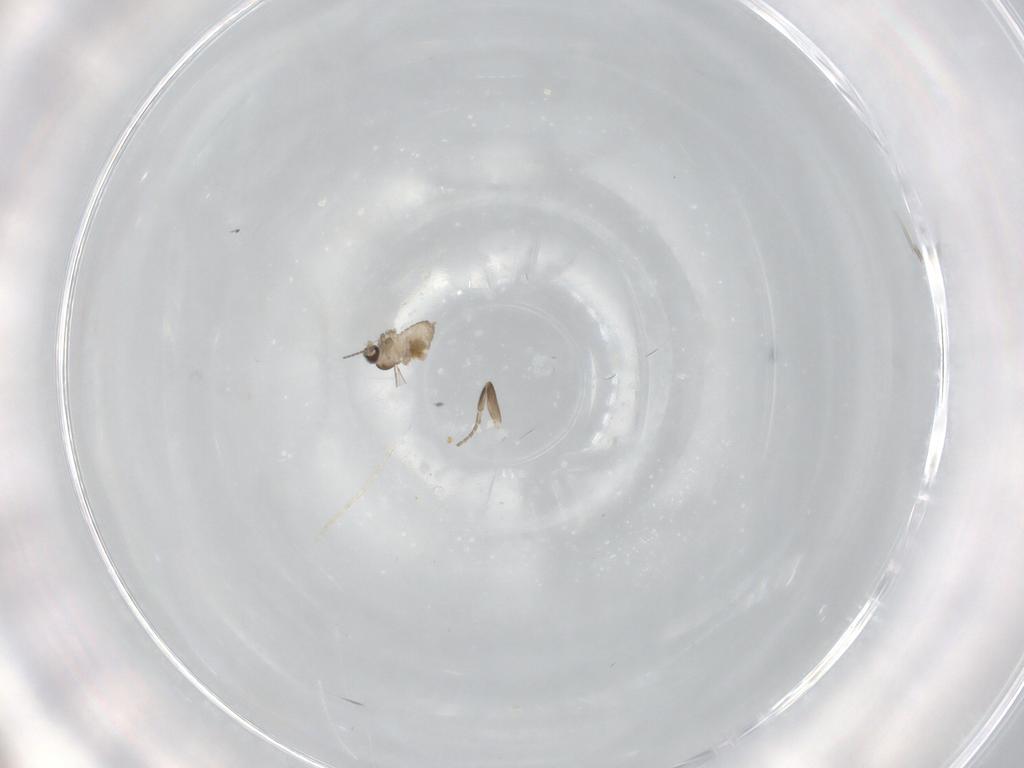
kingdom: Animalia
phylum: Arthropoda
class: Insecta
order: Diptera
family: Cecidomyiidae
